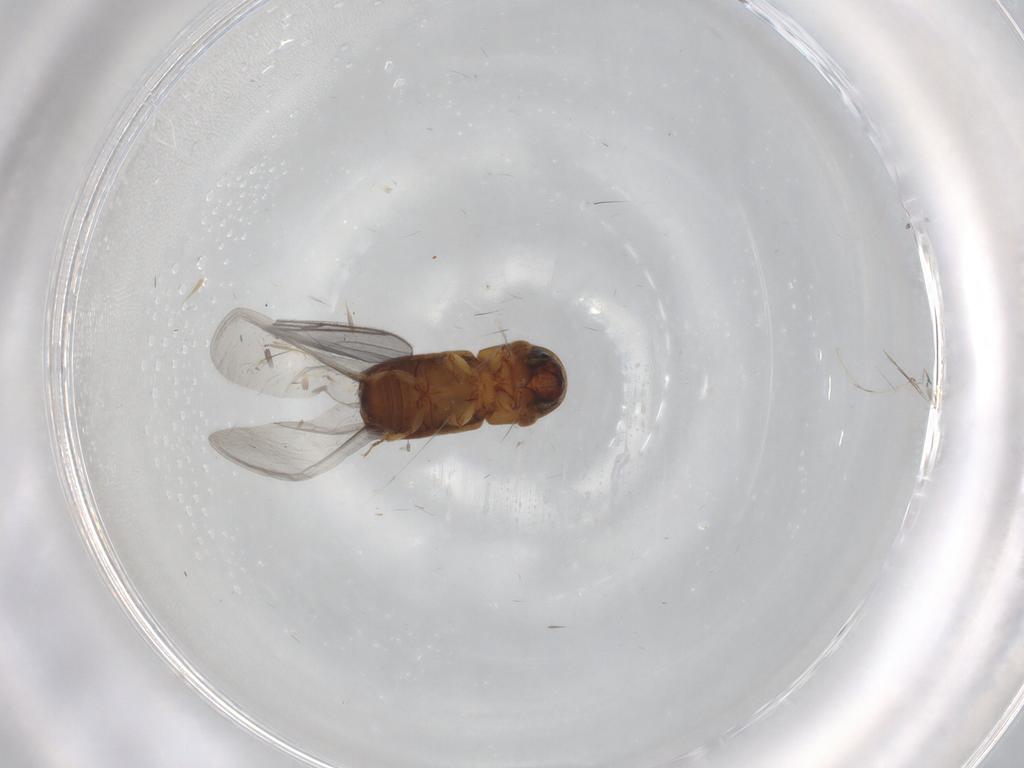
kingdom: Animalia
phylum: Arthropoda
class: Insecta
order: Coleoptera
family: Curculionidae
